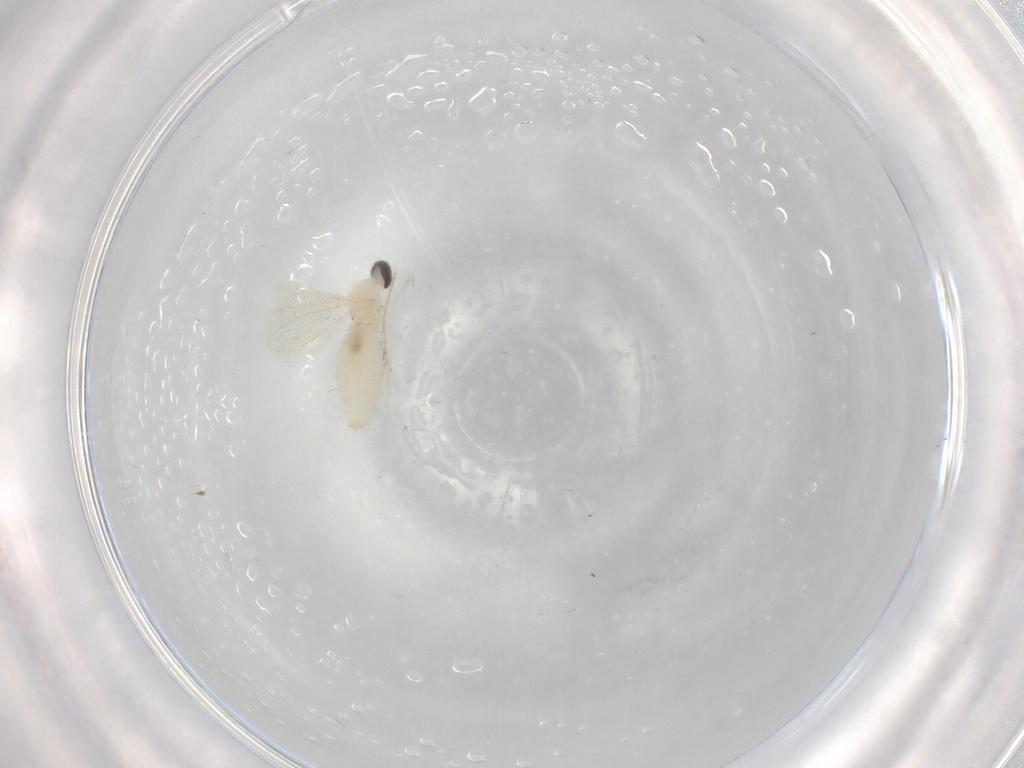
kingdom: Animalia
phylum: Arthropoda
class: Insecta
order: Diptera
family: Cecidomyiidae
